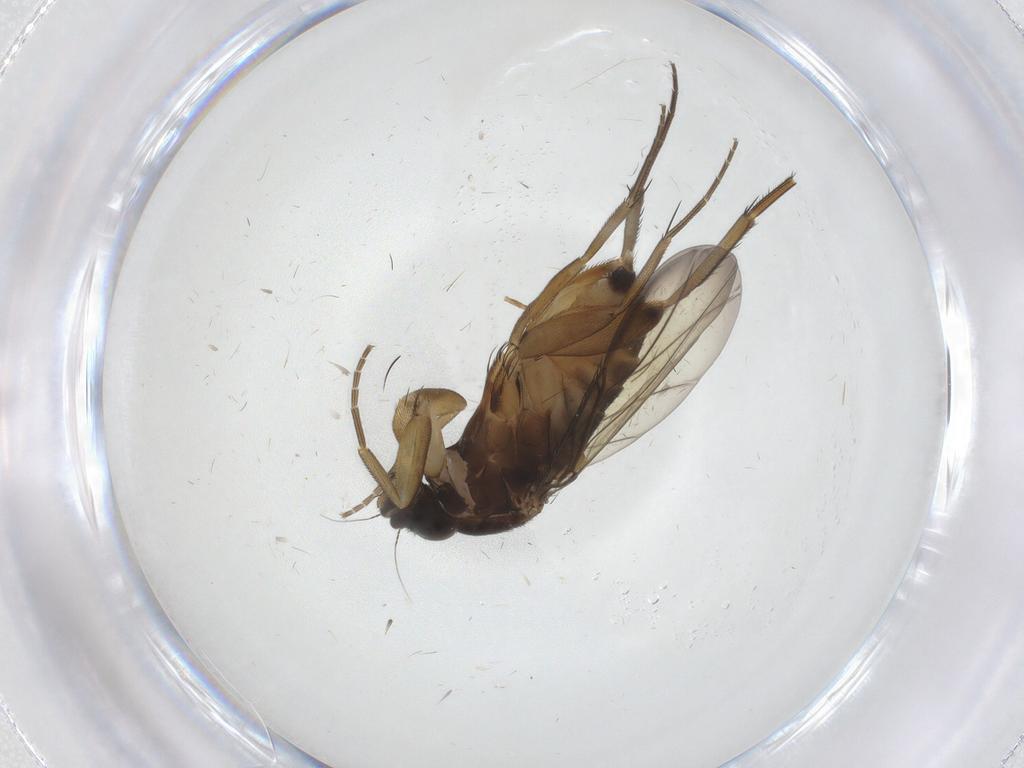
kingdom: Animalia
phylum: Arthropoda
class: Insecta
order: Diptera
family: Phoridae
